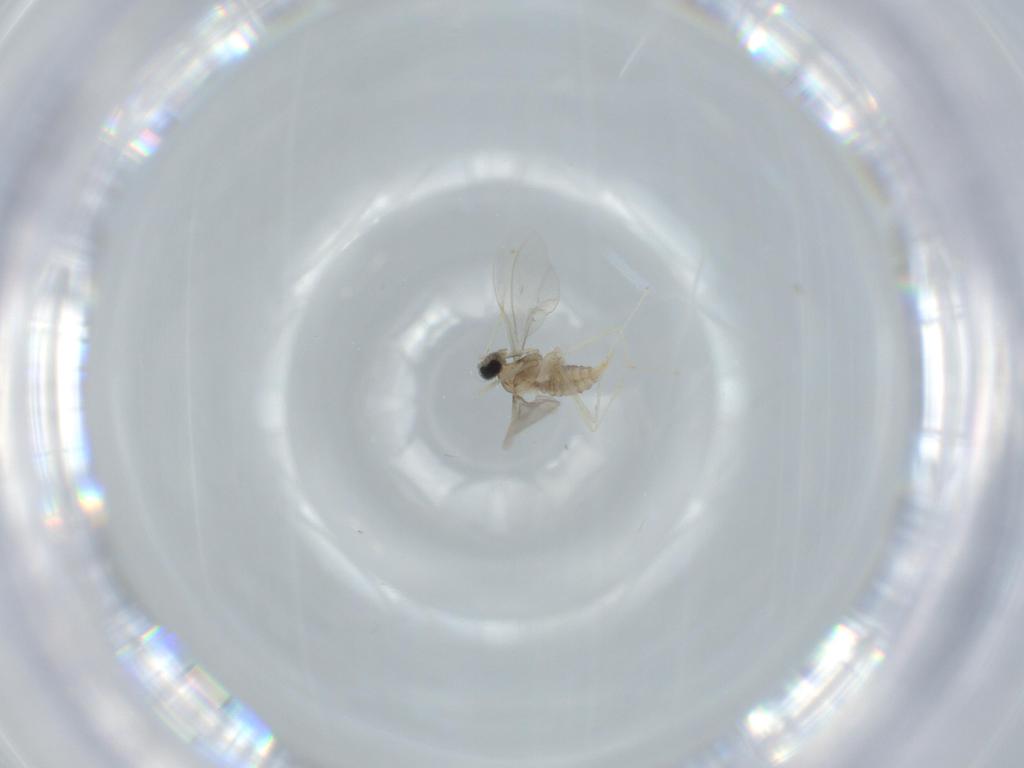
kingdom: Animalia
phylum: Arthropoda
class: Insecta
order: Diptera
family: Cecidomyiidae
